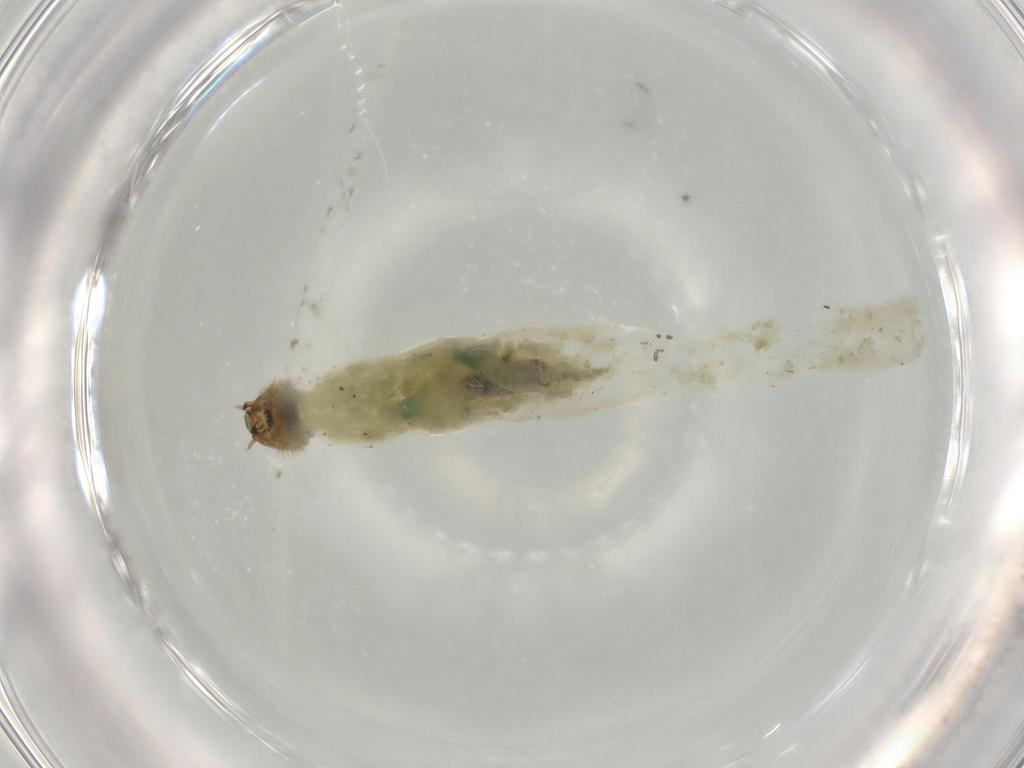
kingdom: Animalia
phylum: Arthropoda
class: Insecta
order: Diptera
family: Chironomidae
